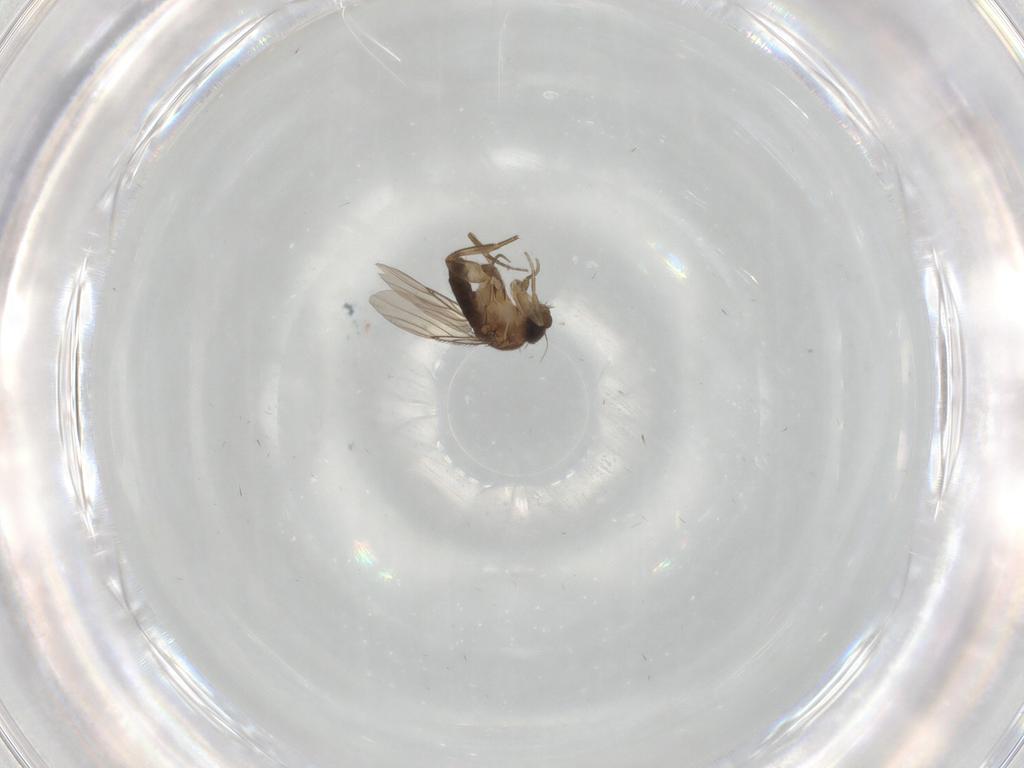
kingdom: Animalia
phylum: Arthropoda
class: Insecta
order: Diptera
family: Phoridae
